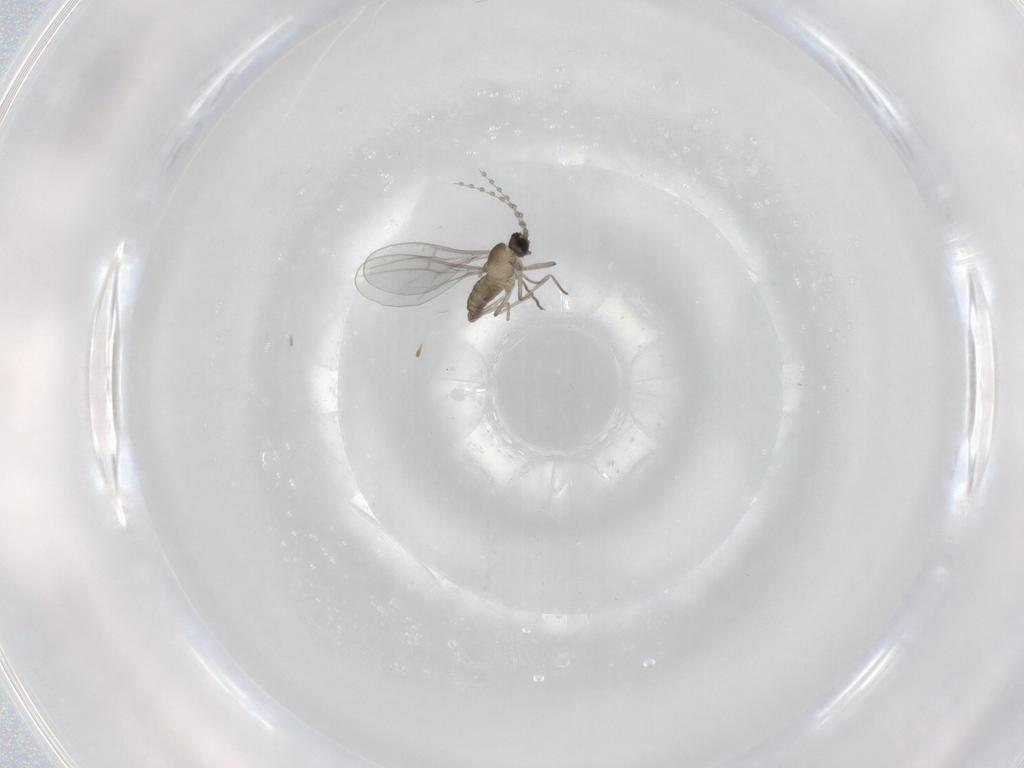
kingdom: Animalia
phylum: Arthropoda
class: Insecta
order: Diptera
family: Cecidomyiidae
